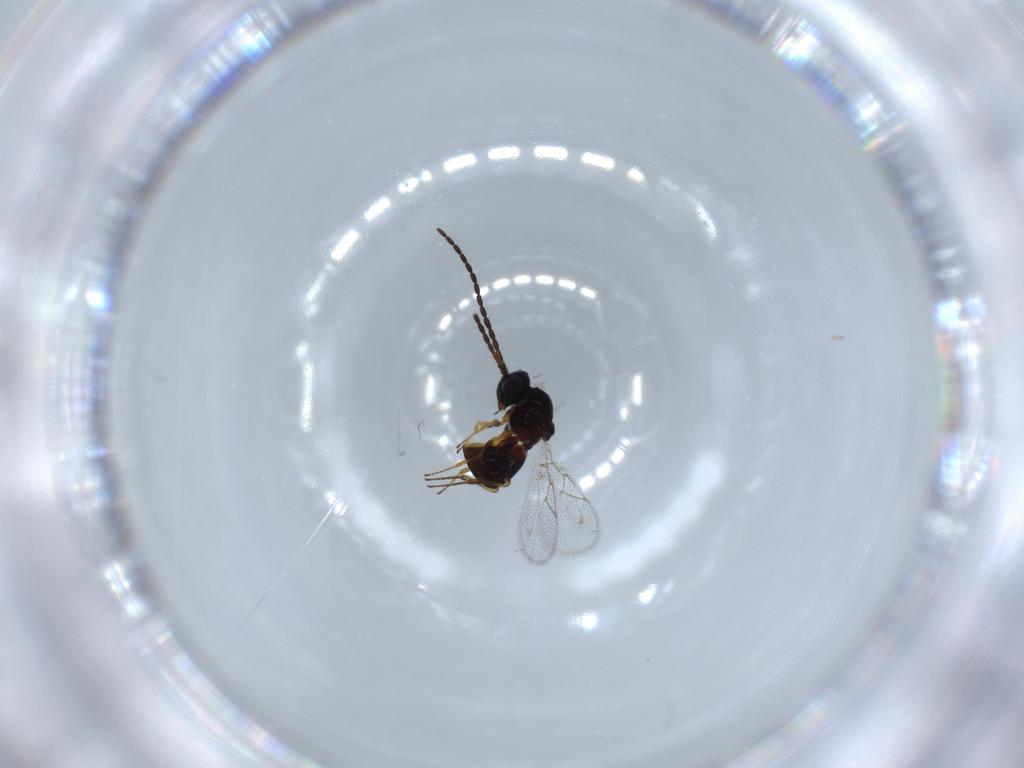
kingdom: Animalia
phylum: Arthropoda
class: Insecta
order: Hymenoptera
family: Figitidae
